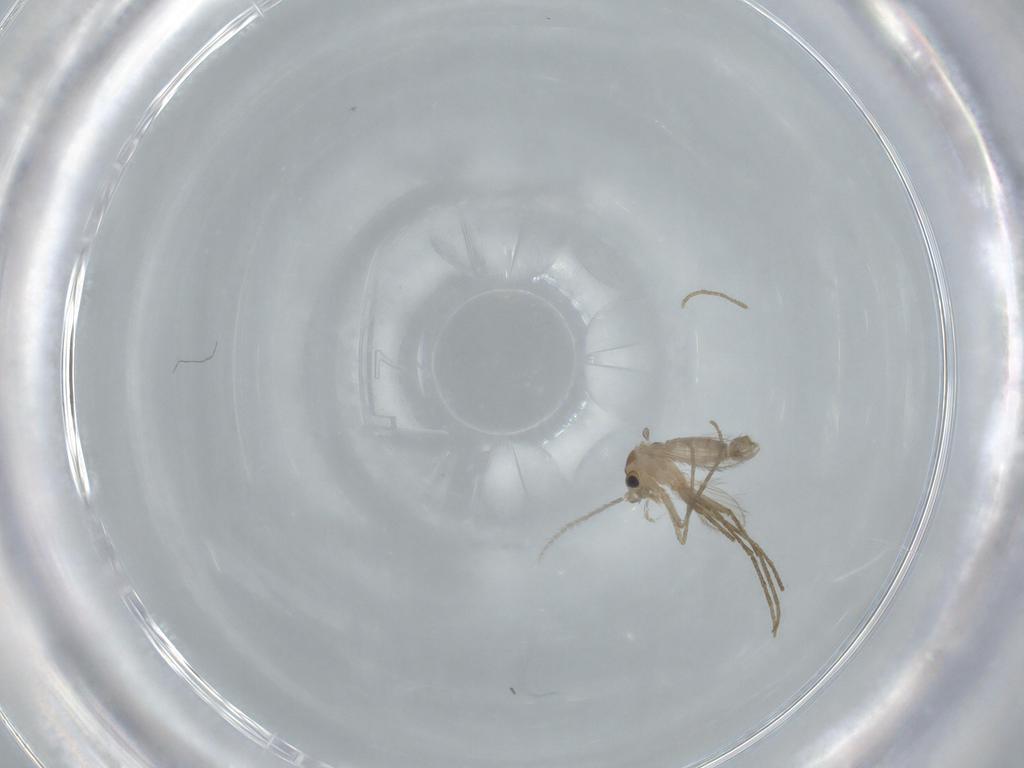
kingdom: Animalia
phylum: Arthropoda
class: Insecta
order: Diptera
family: Psychodidae
